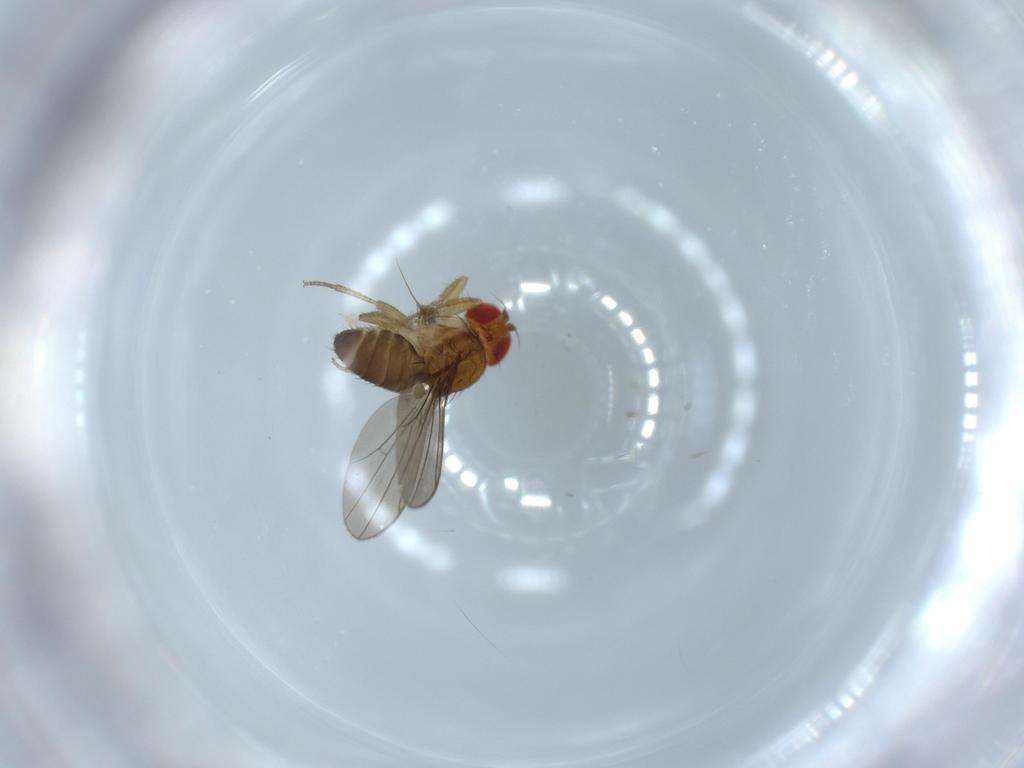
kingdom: Animalia
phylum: Arthropoda
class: Insecta
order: Diptera
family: Drosophilidae
